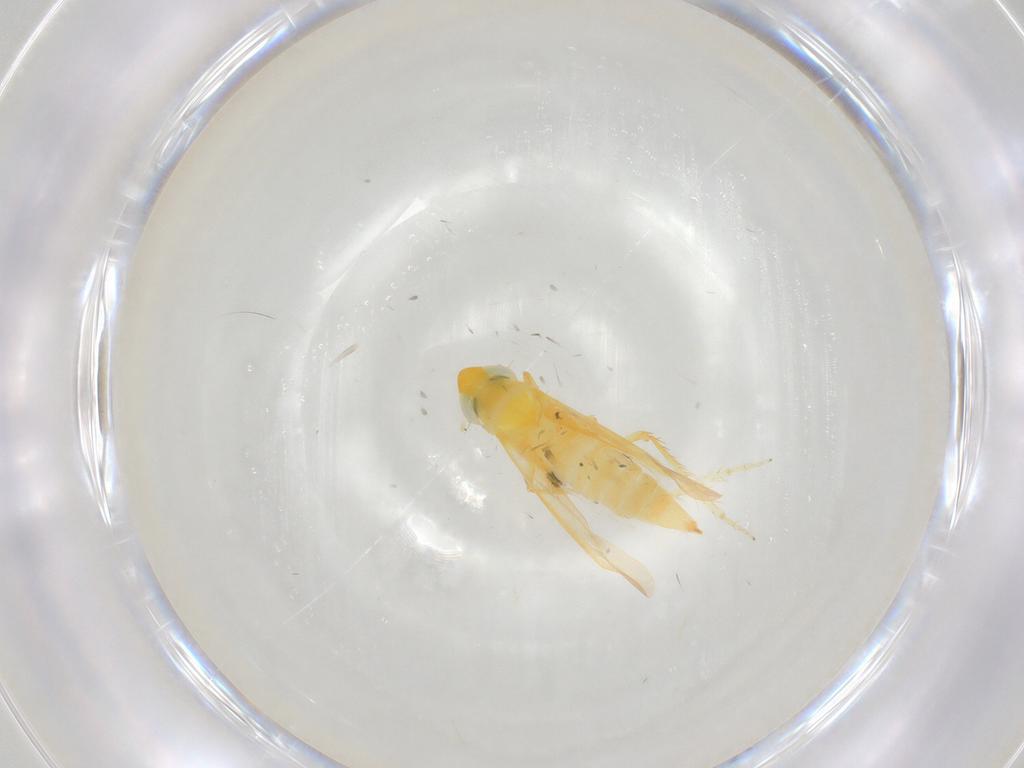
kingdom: Animalia
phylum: Arthropoda
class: Insecta
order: Hemiptera
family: Cicadellidae
